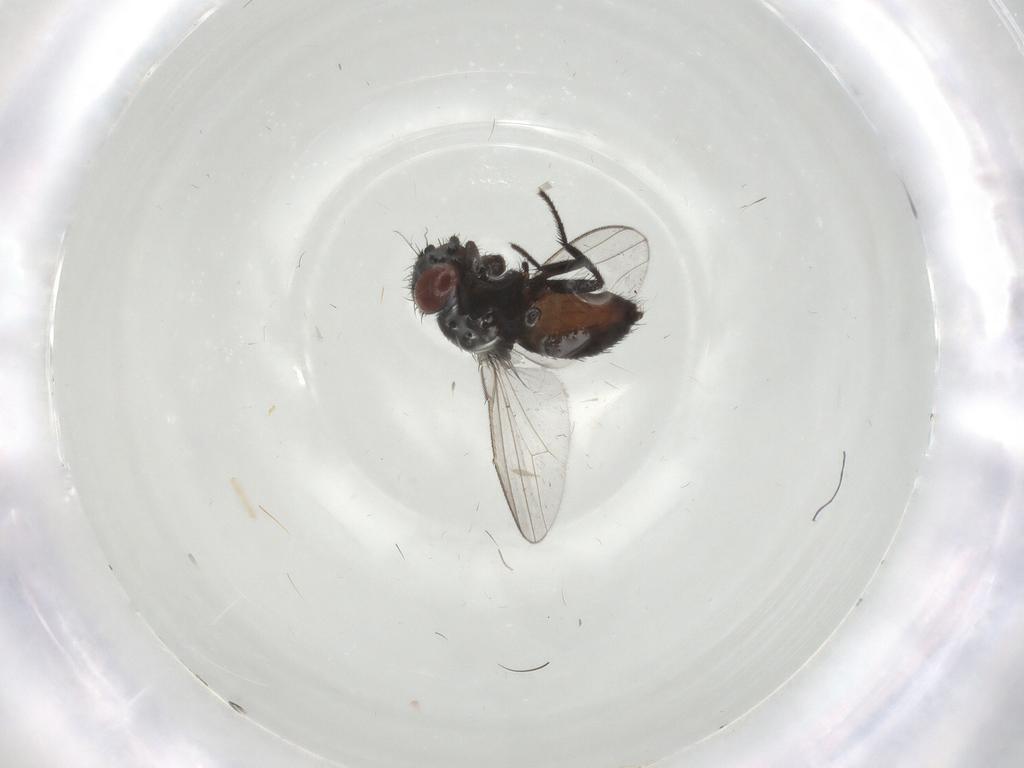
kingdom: Animalia
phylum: Arthropoda
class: Insecta
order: Diptera
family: Milichiidae
